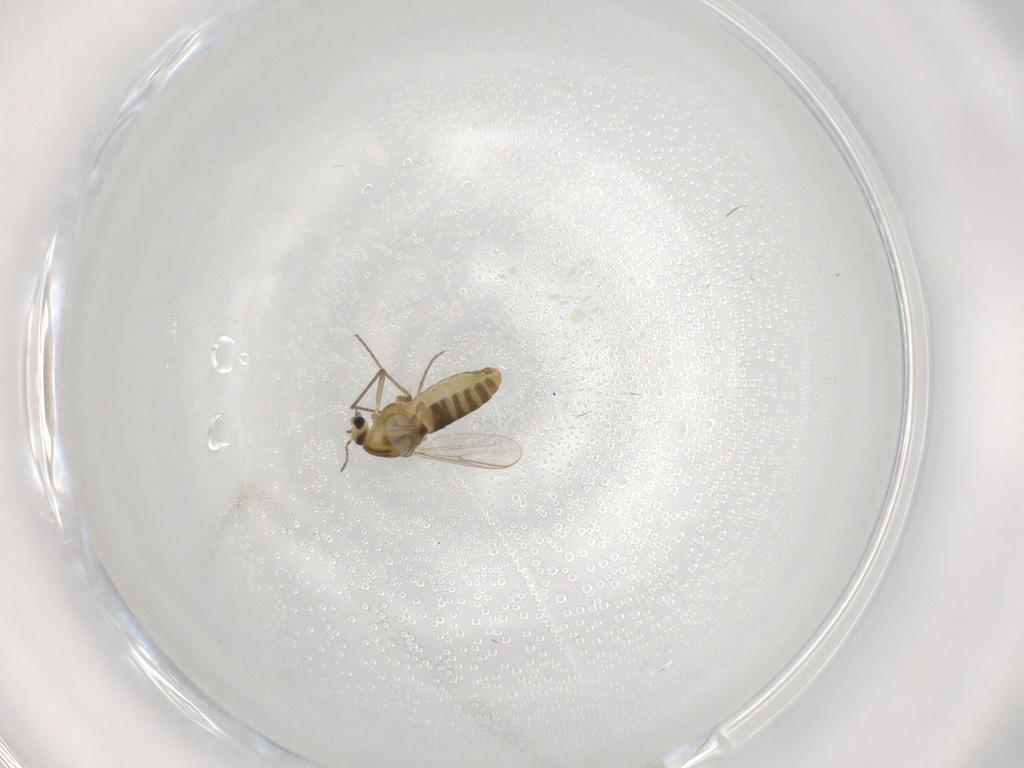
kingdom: Animalia
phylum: Arthropoda
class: Insecta
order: Diptera
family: Chironomidae
